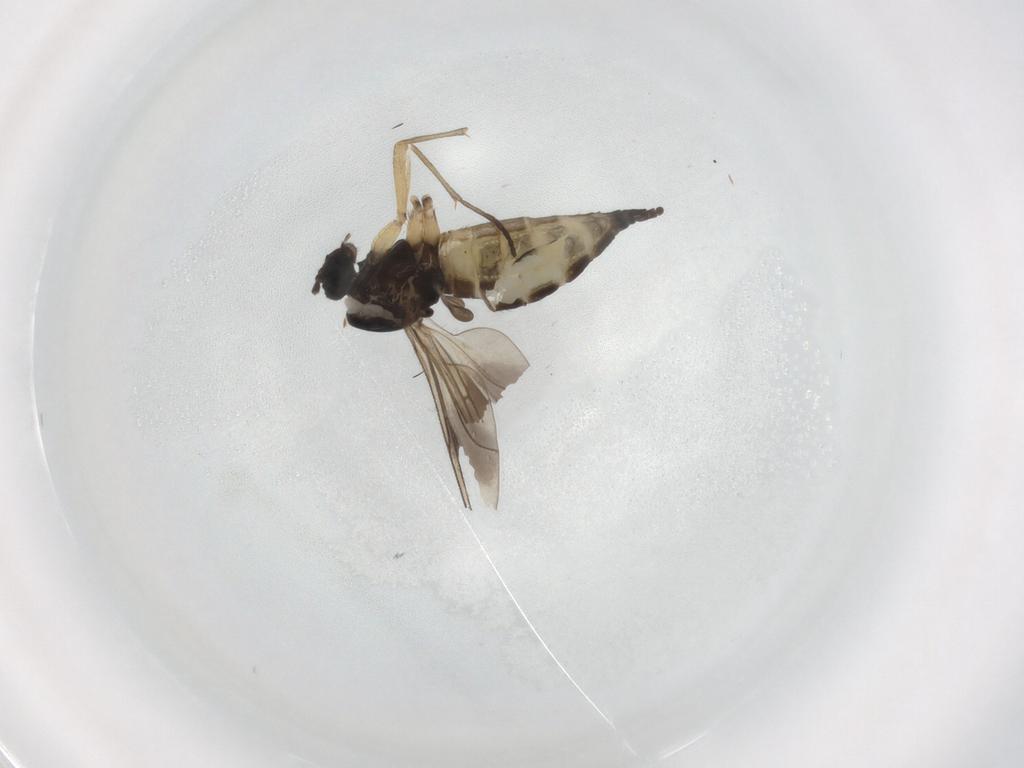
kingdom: Animalia
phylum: Arthropoda
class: Insecta
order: Diptera
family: Sciaridae
